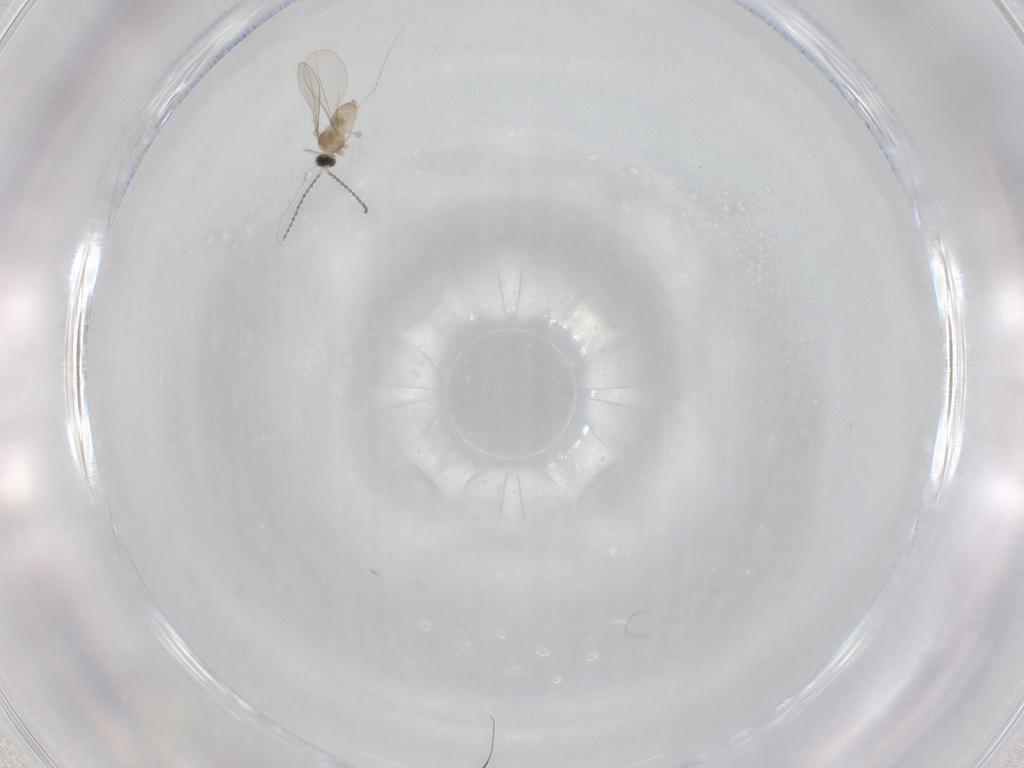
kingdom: Animalia
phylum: Arthropoda
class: Insecta
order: Diptera
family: Cecidomyiidae
